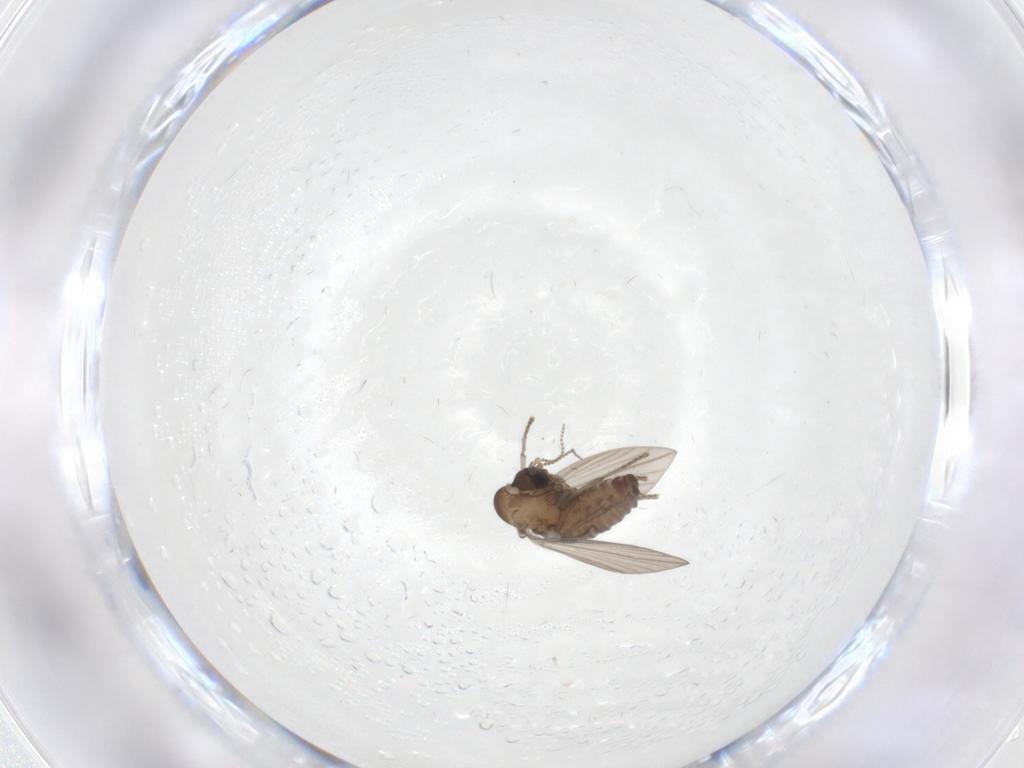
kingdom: Animalia
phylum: Arthropoda
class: Insecta
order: Diptera
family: Psychodidae
